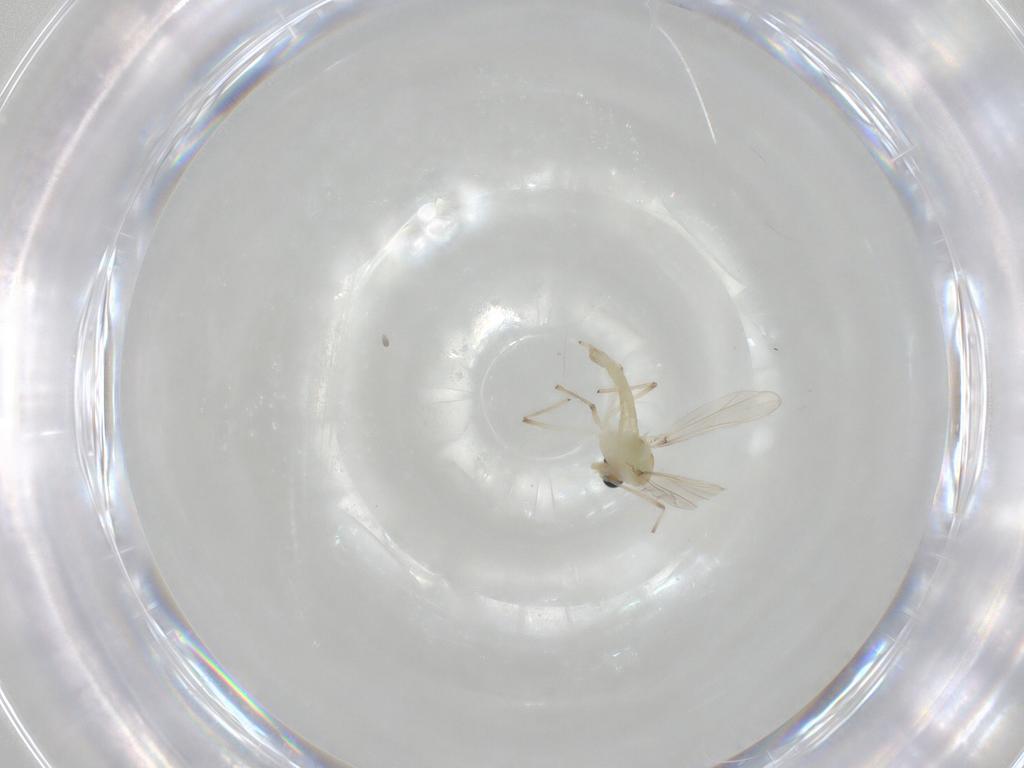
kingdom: Animalia
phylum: Arthropoda
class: Insecta
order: Diptera
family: Chironomidae
